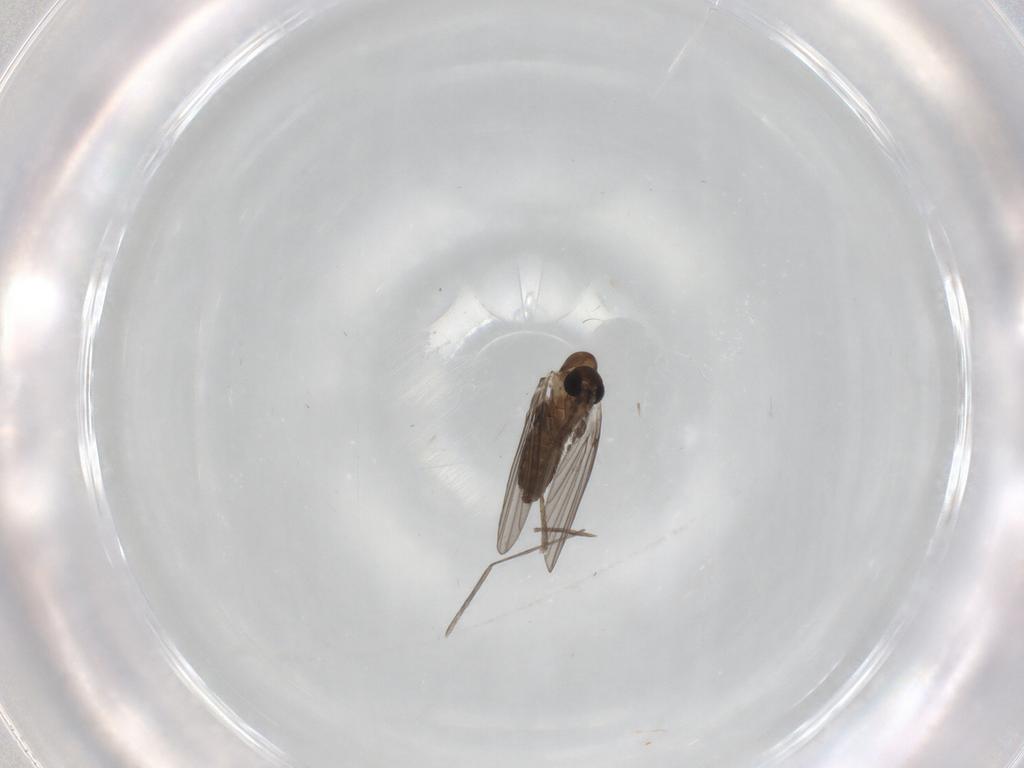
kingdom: Animalia
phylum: Arthropoda
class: Insecta
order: Diptera
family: Psychodidae
